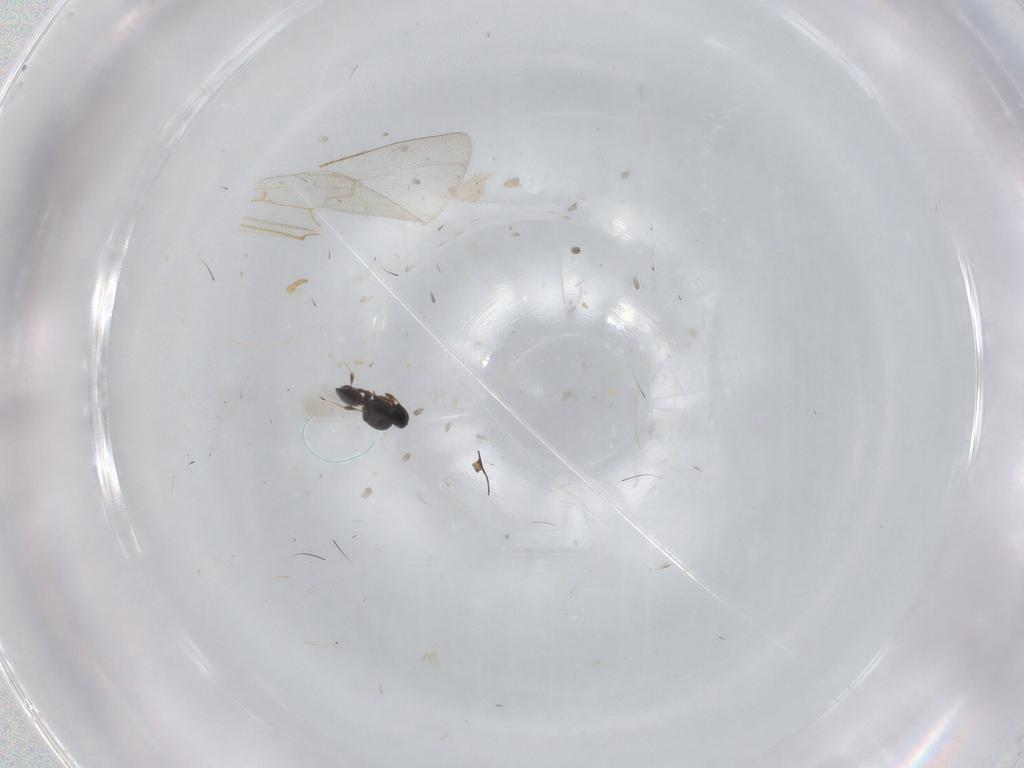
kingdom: Animalia
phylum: Arthropoda
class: Insecta
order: Hymenoptera
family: Platygastridae
